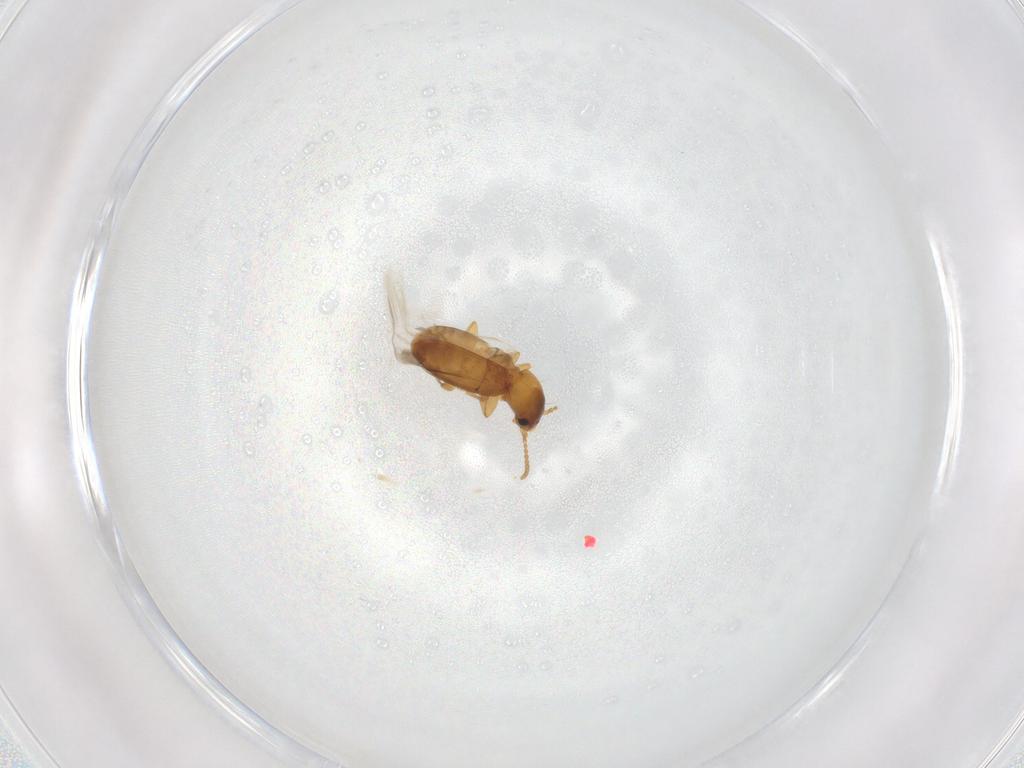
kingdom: Animalia
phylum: Arthropoda
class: Insecta
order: Coleoptera
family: Carabidae
